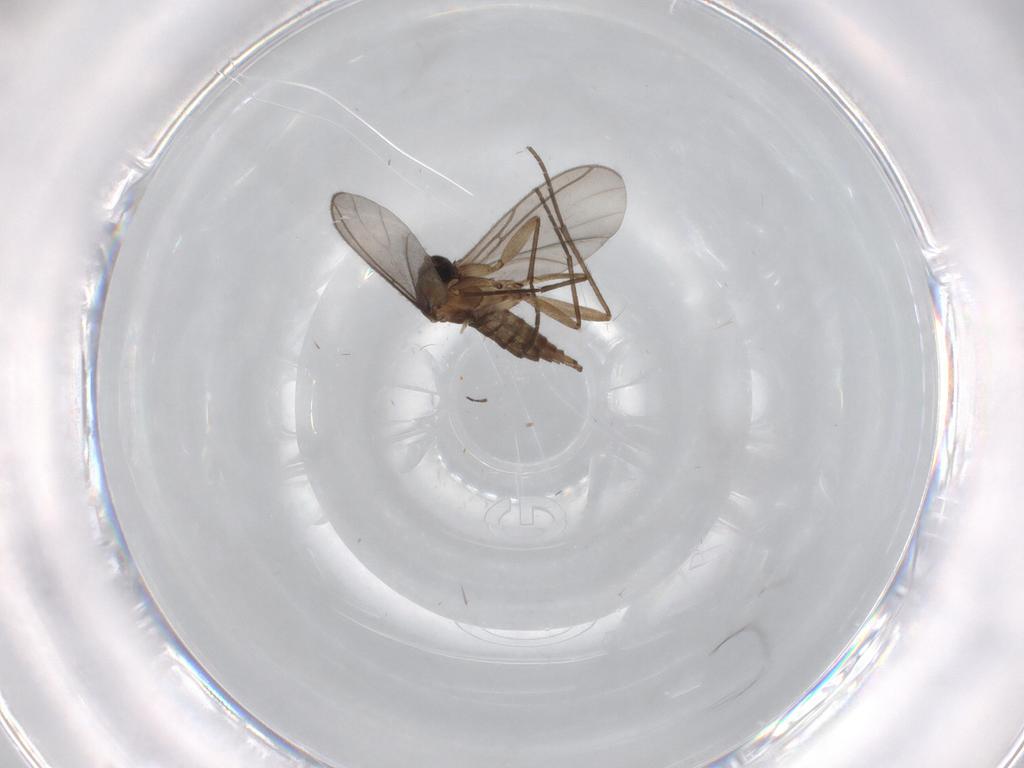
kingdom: Animalia
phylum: Arthropoda
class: Insecta
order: Diptera
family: Sciaridae
